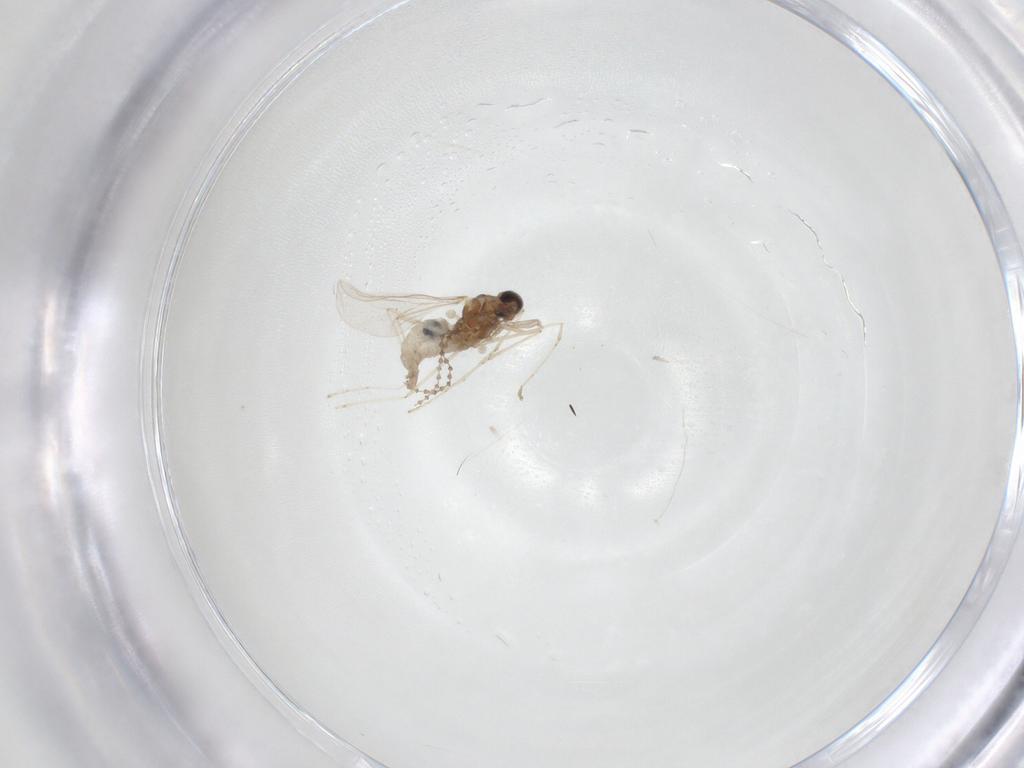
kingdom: Animalia
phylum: Arthropoda
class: Insecta
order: Diptera
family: Cecidomyiidae
